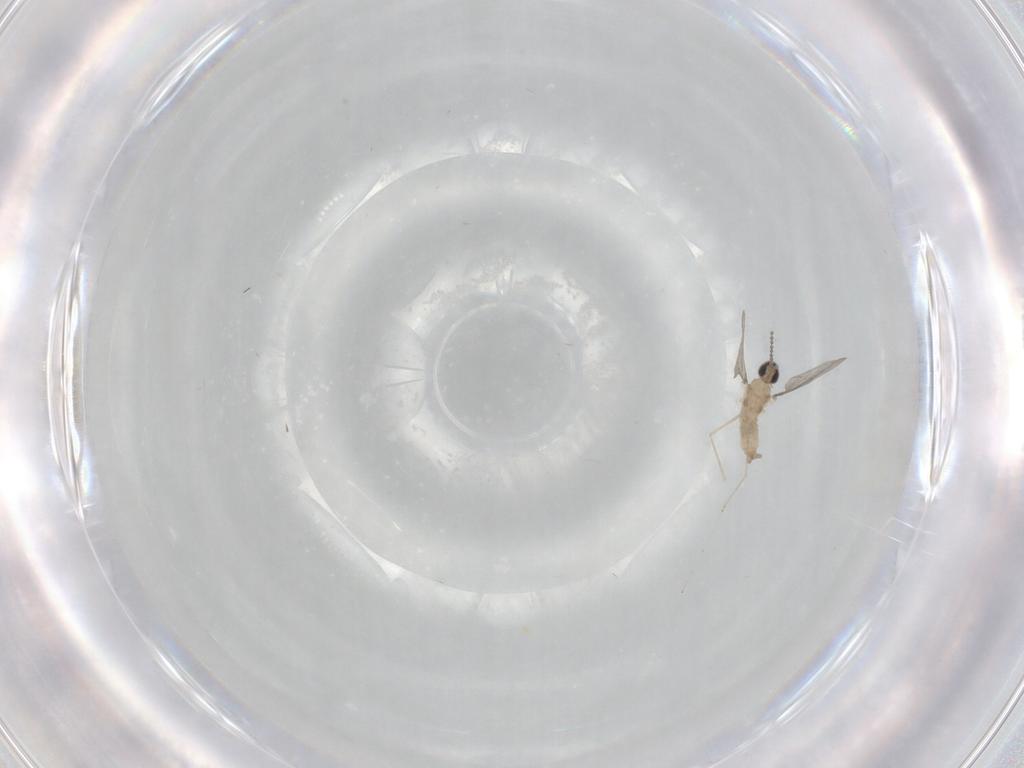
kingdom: Animalia
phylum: Arthropoda
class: Insecta
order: Diptera
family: Cecidomyiidae
